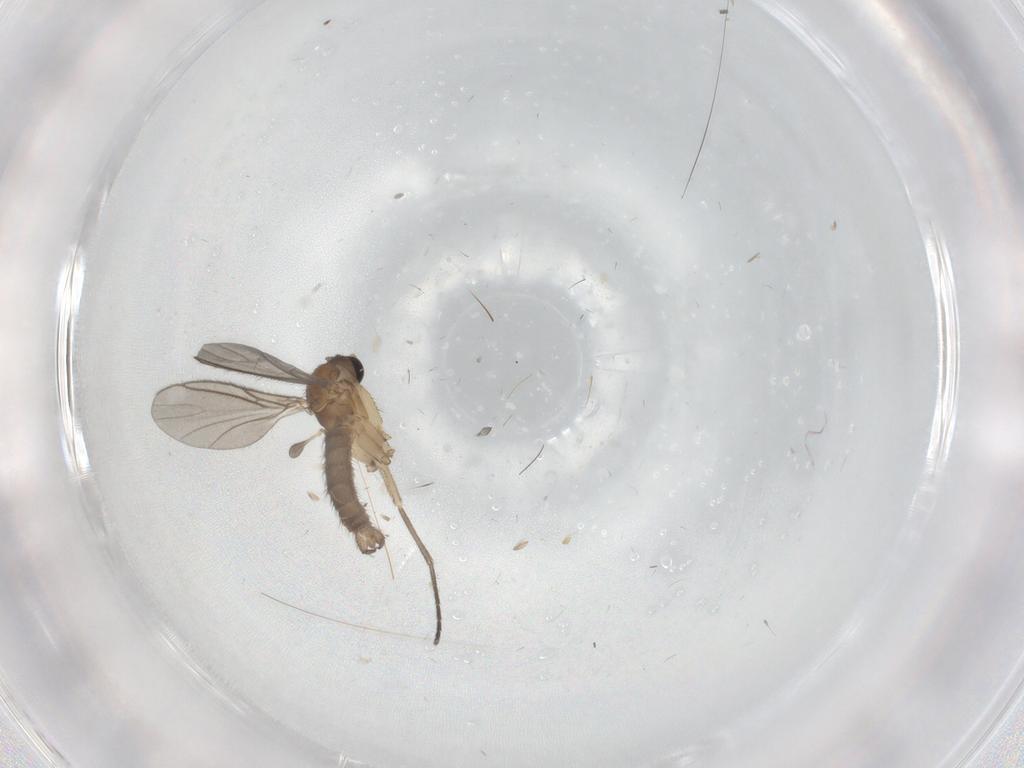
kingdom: Animalia
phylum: Arthropoda
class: Insecta
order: Diptera
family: Sciaridae
